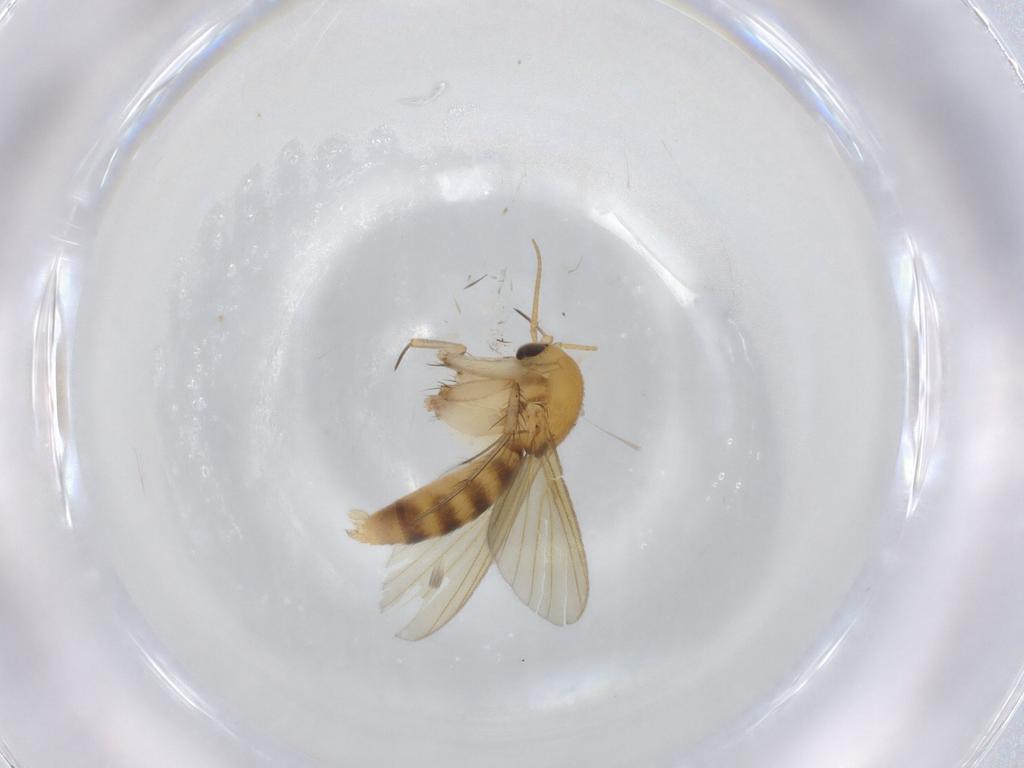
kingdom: Animalia
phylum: Arthropoda
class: Insecta
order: Diptera
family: Mycetophilidae
